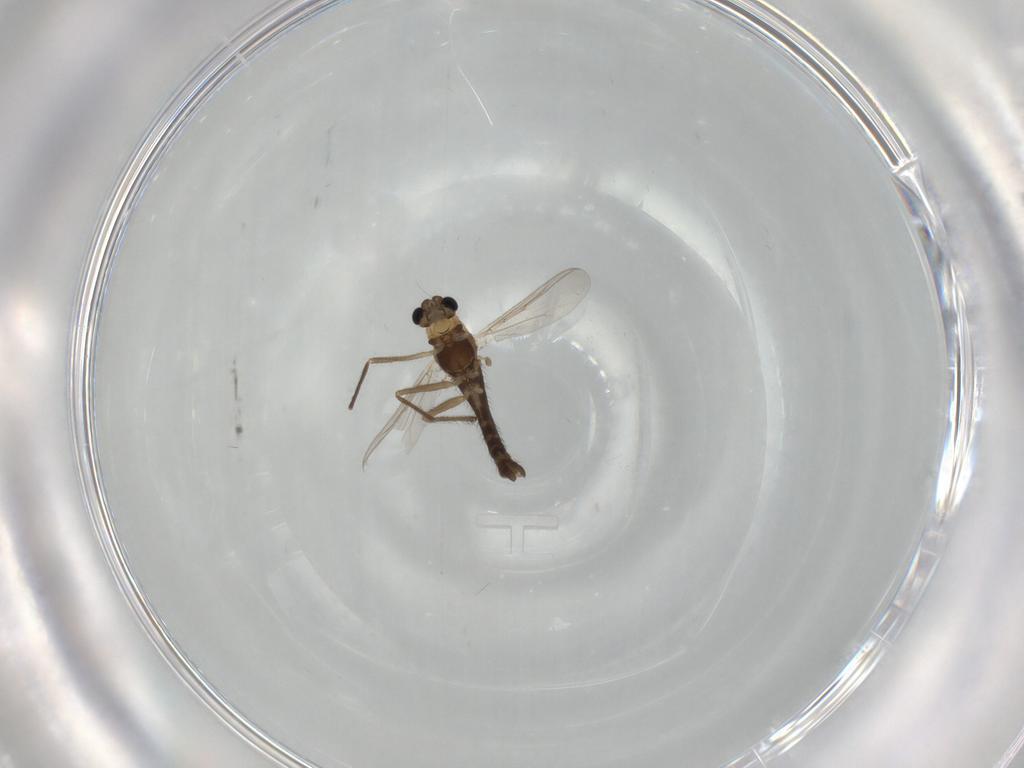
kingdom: Animalia
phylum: Arthropoda
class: Insecta
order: Diptera
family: Chironomidae
